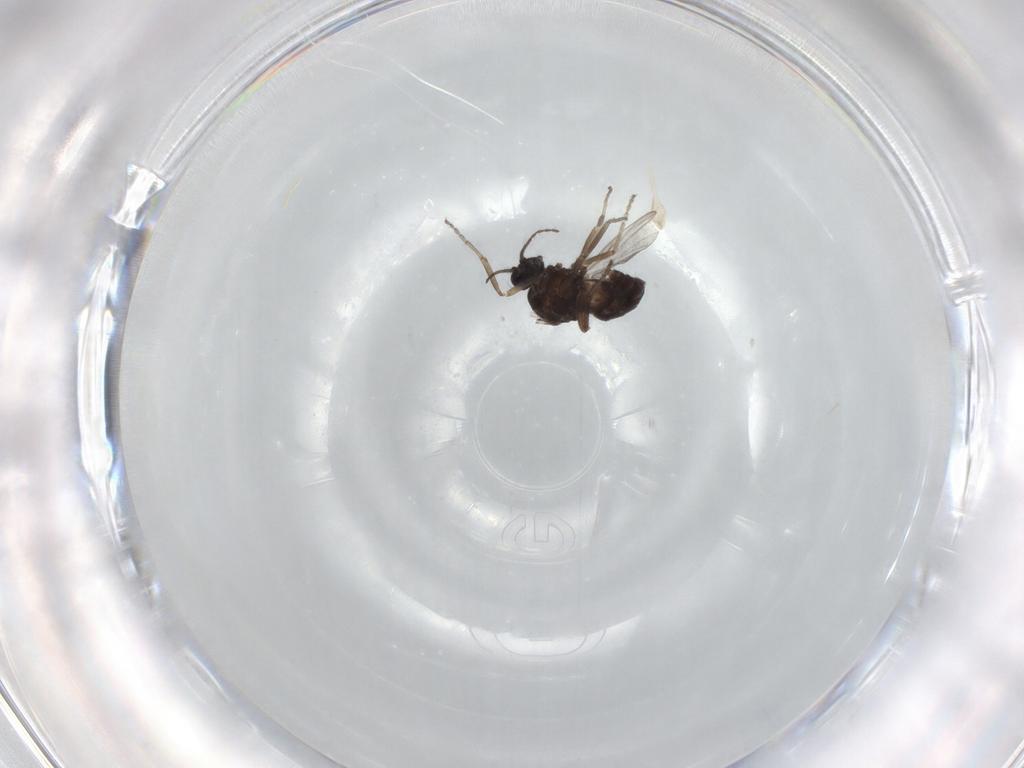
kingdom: Animalia
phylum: Arthropoda
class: Insecta
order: Diptera
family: Ceratopogonidae
